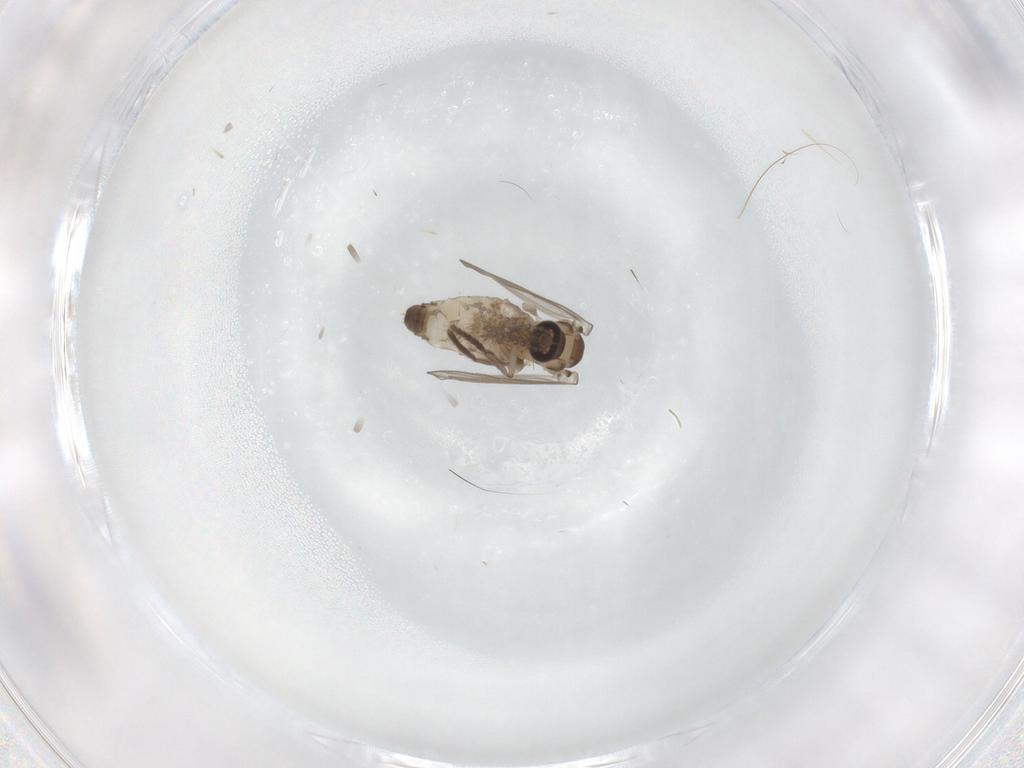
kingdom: Animalia
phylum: Arthropoda
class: Insecta
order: Diptera
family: Psychodidae
